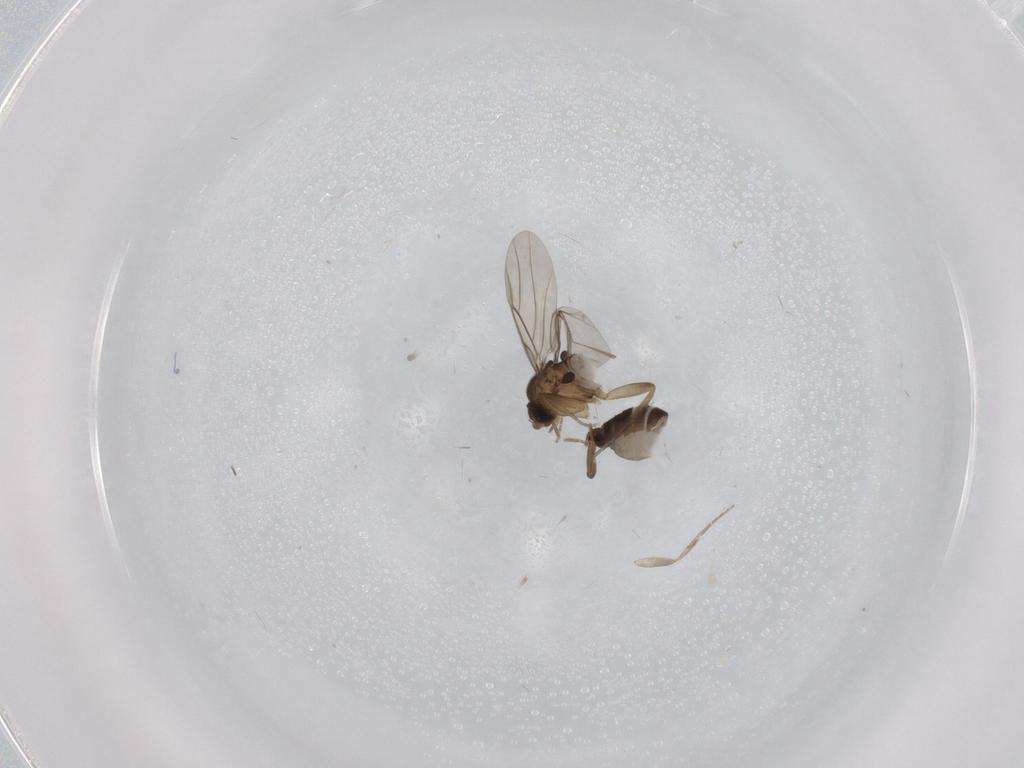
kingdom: Animalia
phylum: Arthropoda
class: Insecta
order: Diptera
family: Phoridae
